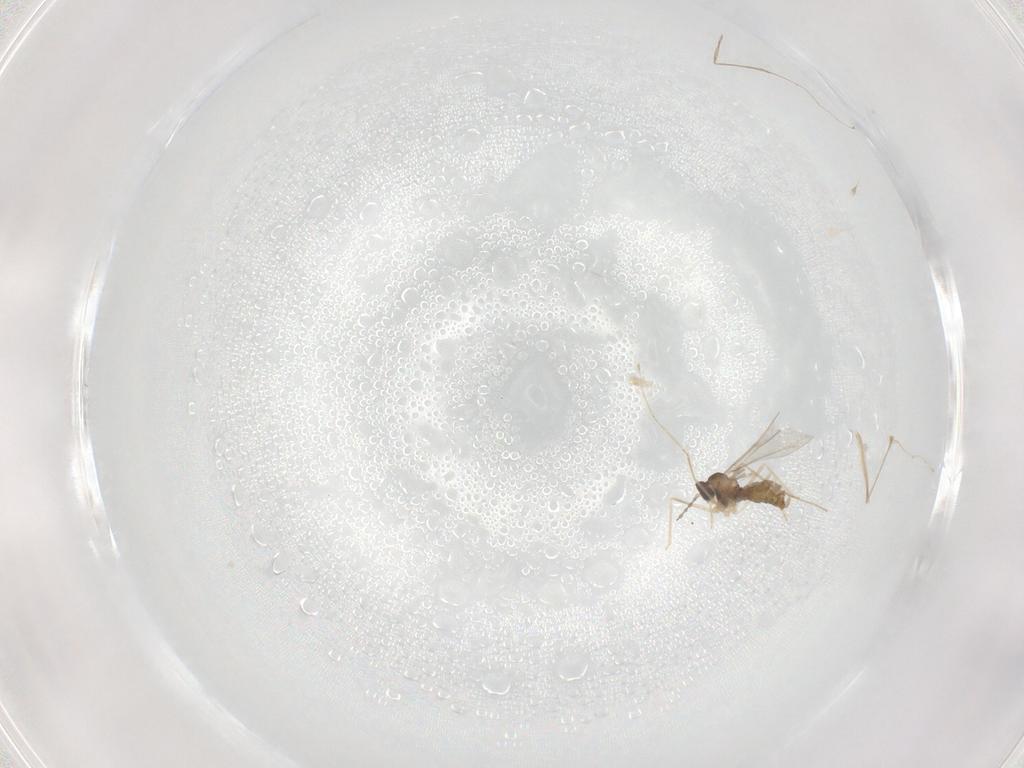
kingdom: Animalia
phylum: Arthropoda
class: Insecta
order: Diptera
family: Cecidomyiidae
